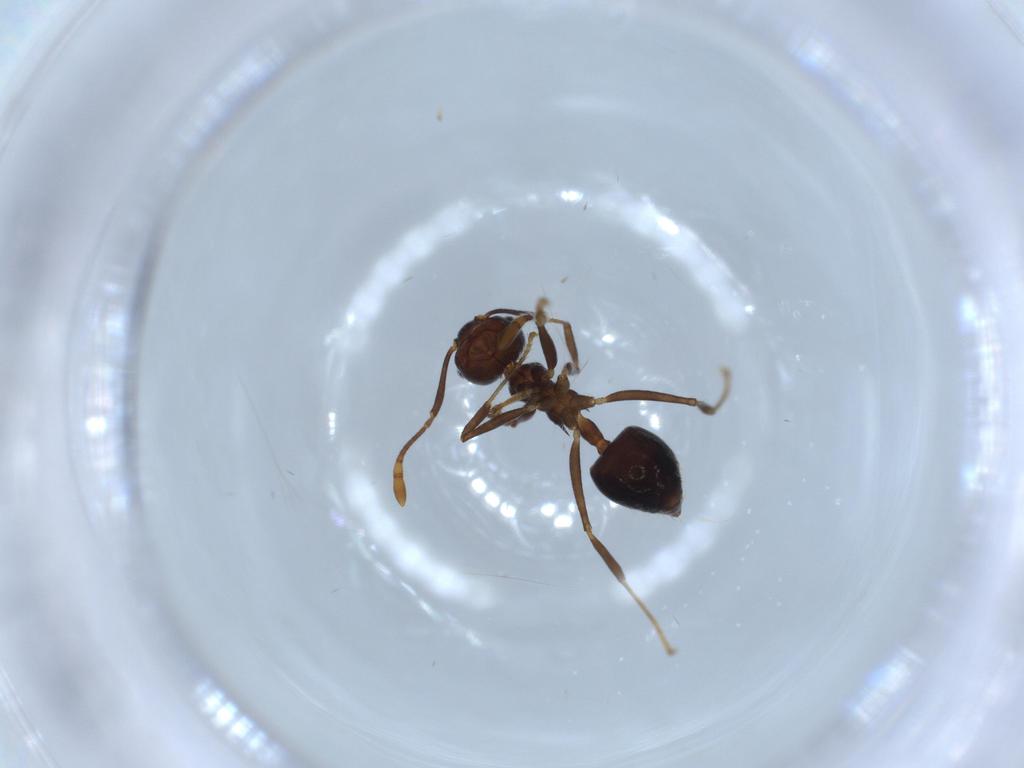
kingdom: Animalia
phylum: Arthropoda
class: Insecta
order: Hymenoptera
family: Formicidae
